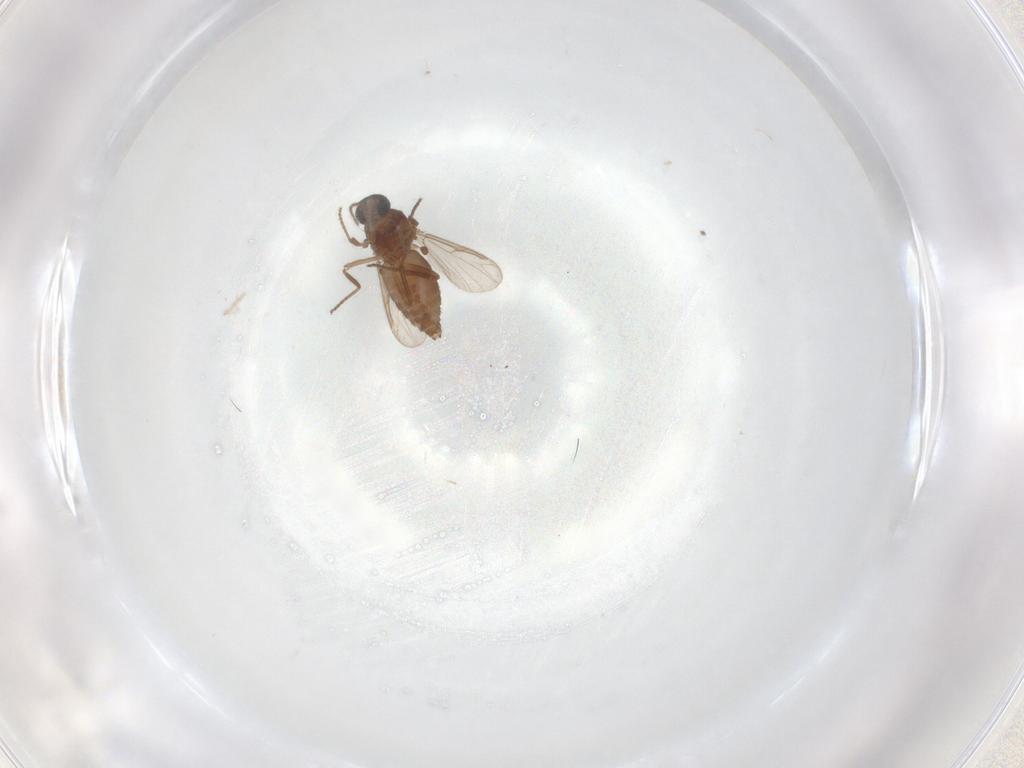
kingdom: Animalia
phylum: Arthropoda
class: Insecta
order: Diptera
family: Ceratopogonidae
